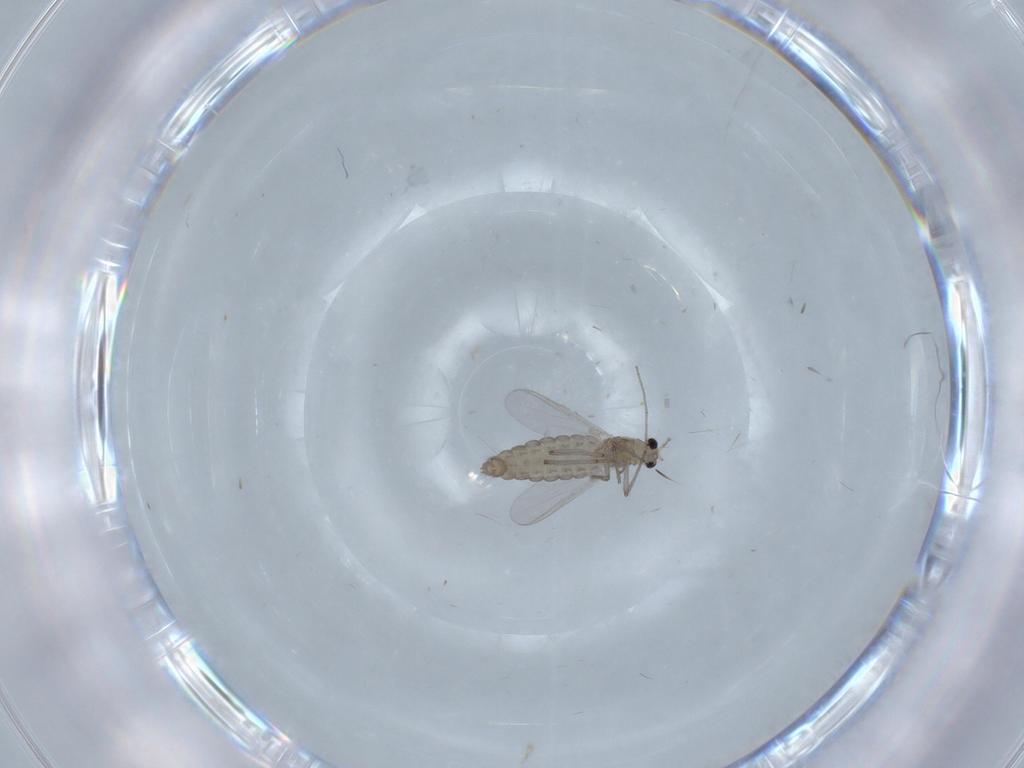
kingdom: Animalia
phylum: Arthropoda
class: Insecta
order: Diptera
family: Chironomidae
